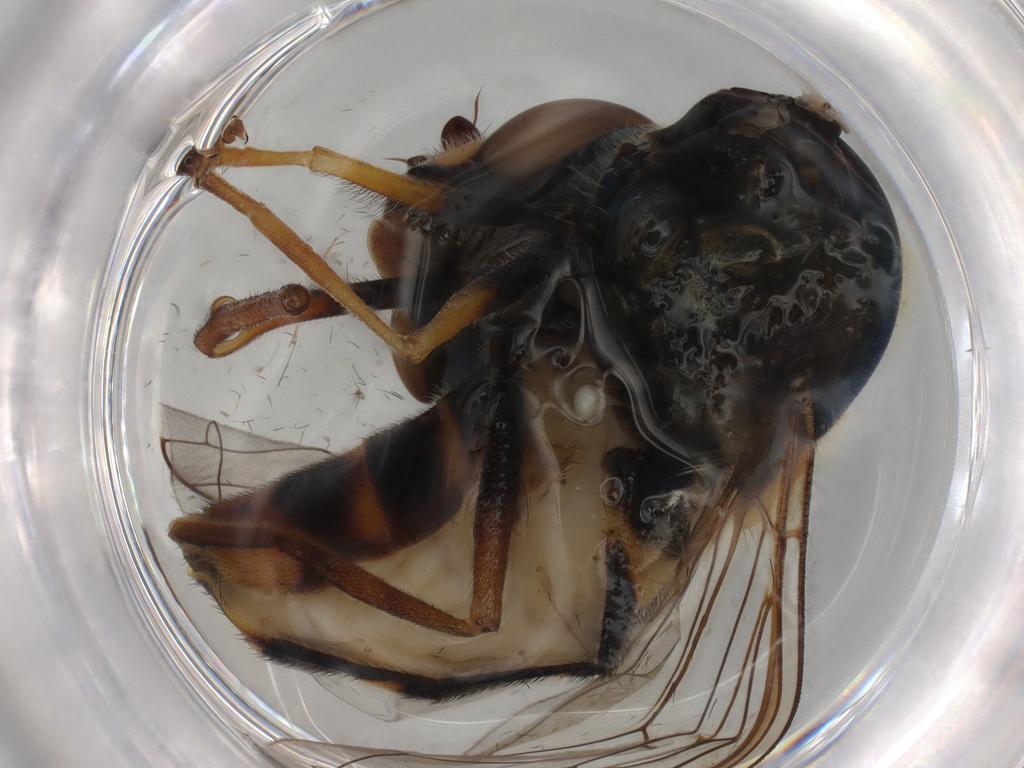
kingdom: Animalia
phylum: Arthropoda
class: Insecta
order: Diptera
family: Syrphidae
